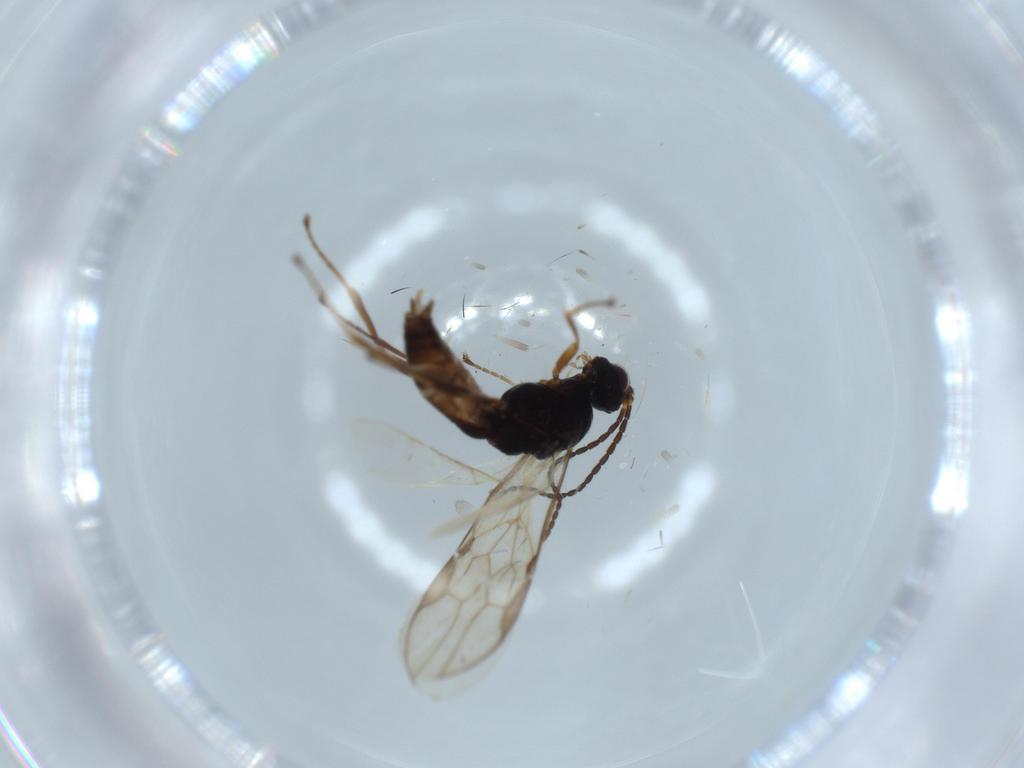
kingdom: Animalia
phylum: Arthropoda
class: Insecta
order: Hymenoptera
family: Braconidae
